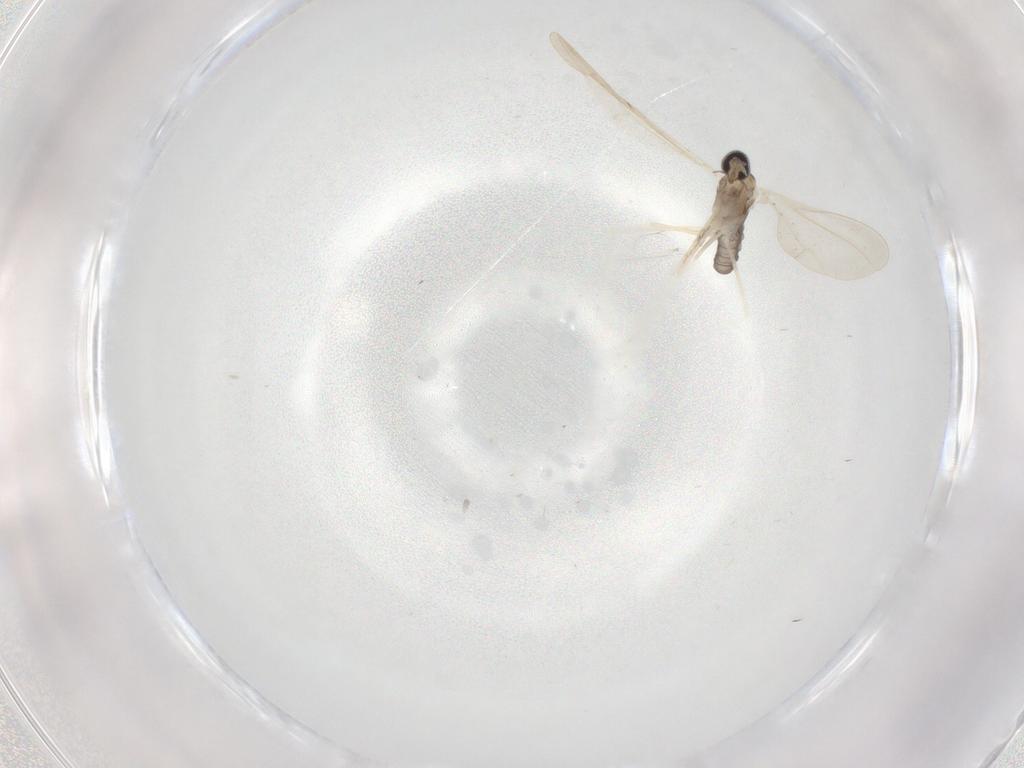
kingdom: Animalia
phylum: Arthropoda
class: Insecta
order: Diptera
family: Cecidomyiidae
